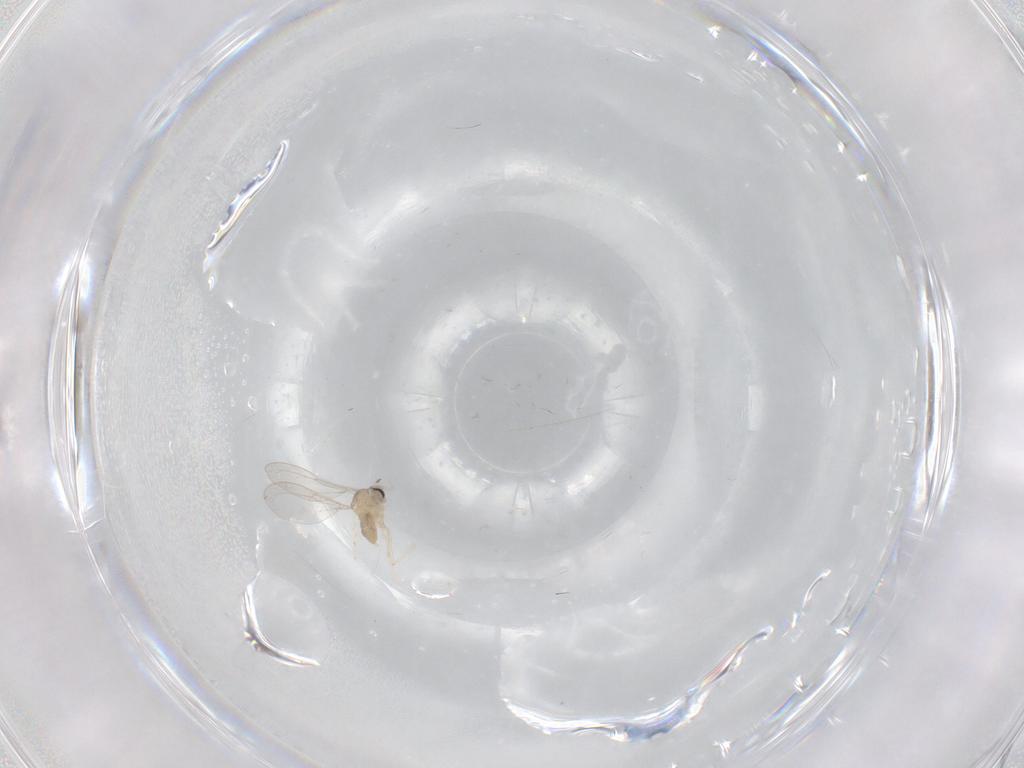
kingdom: Animalia
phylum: Arthropoda
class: Insecta
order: Diptera
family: Cecidomyiidae
